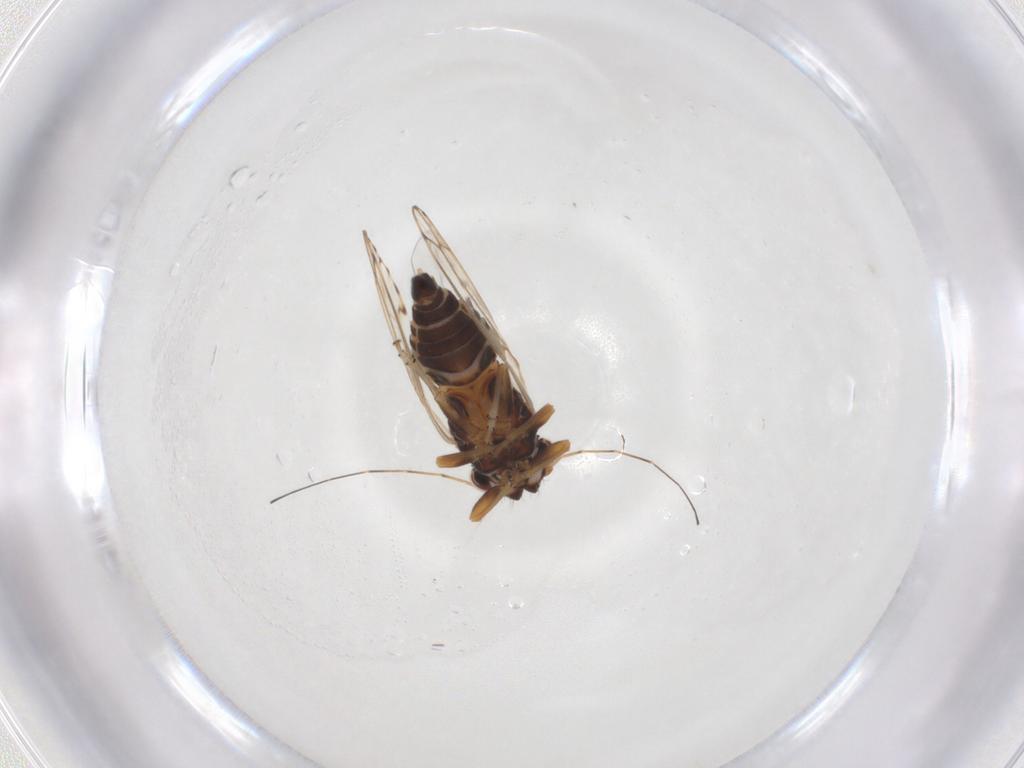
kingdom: Animalia
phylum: Arthropoda
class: Insecta
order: Hemiptera
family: Psylloidea_incertae_sedis
